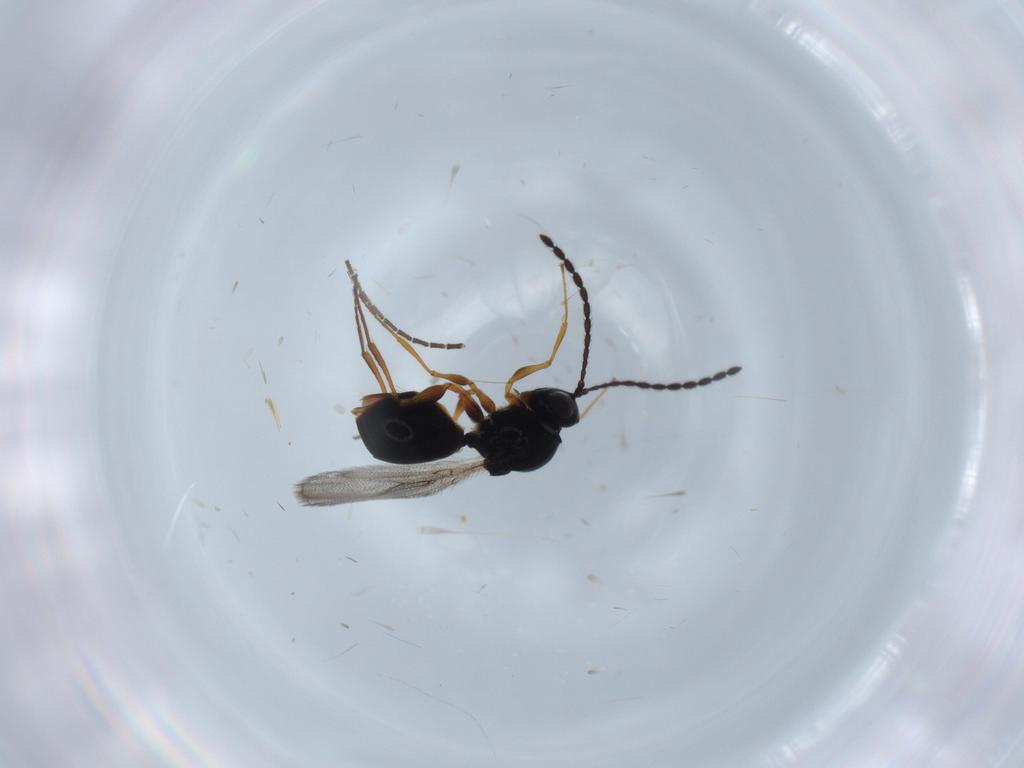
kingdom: Animalia
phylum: Arthropoda
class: Insecta
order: Hymenoptera
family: Figitidae
